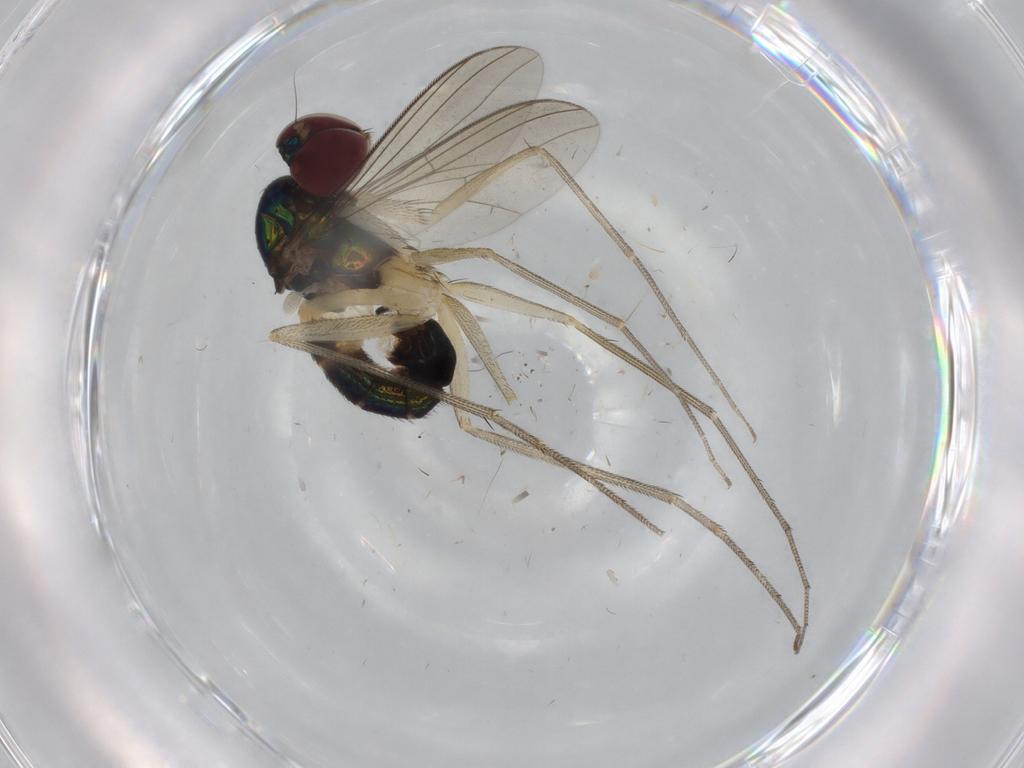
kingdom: Animalia
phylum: Arthropoda
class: Insecta
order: Diptera
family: Dolichopodidae
